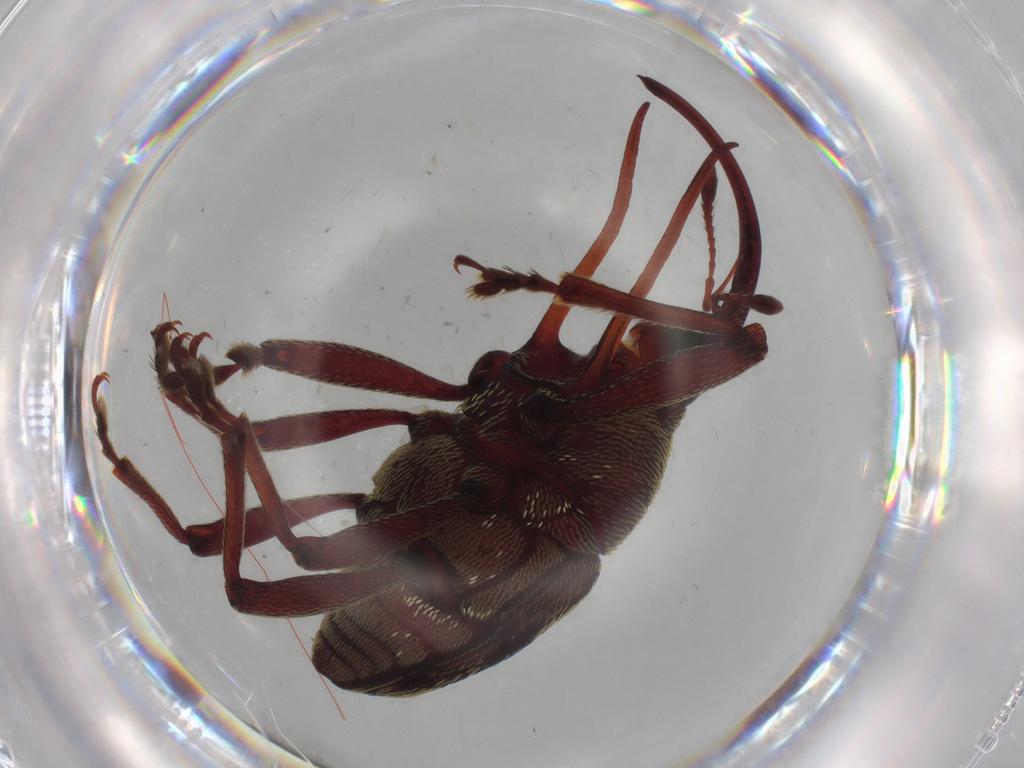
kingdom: Animalia
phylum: Arthropoda
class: Insecta
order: Coleoptera
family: Curculionidae
